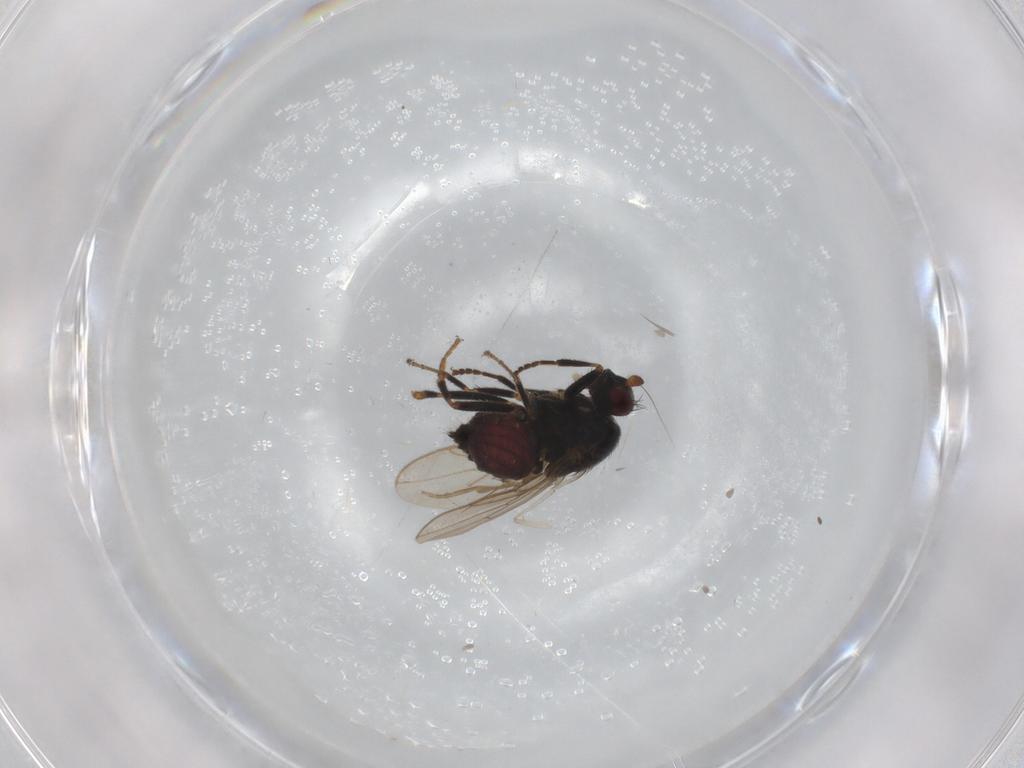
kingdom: Animalia
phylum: Arthropoda
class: Insecta
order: Diptera
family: Sphaeroceridae
